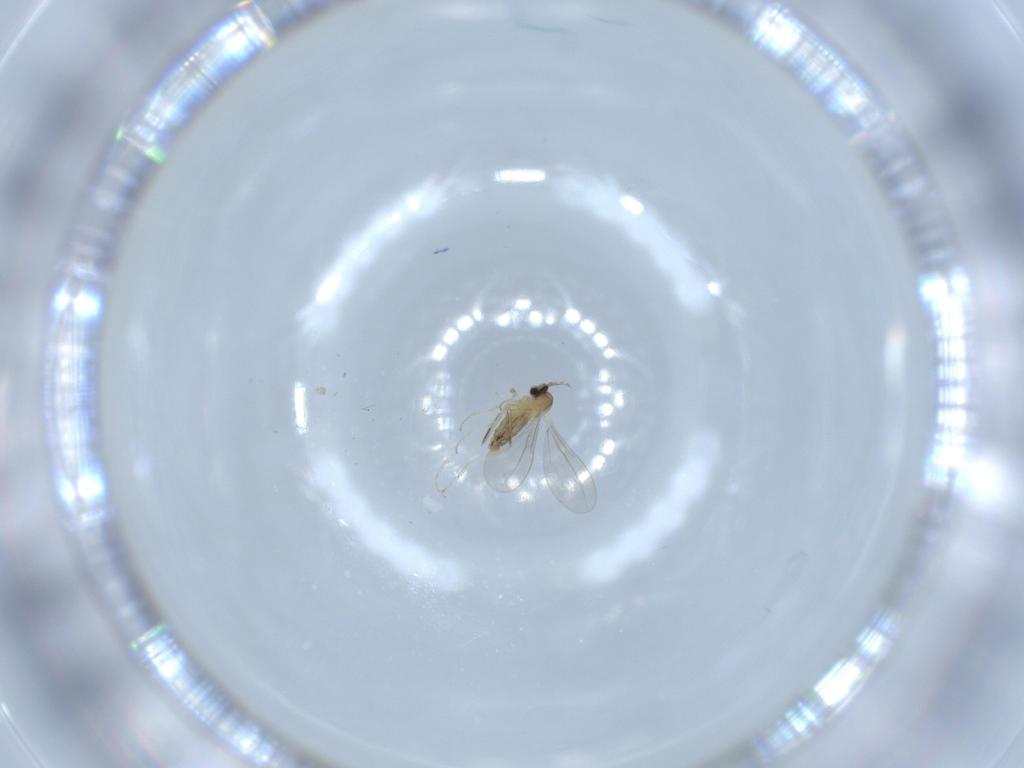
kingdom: Animalia
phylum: Arthropoda
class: Insecta
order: Diptera
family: Cecidomyiidae
